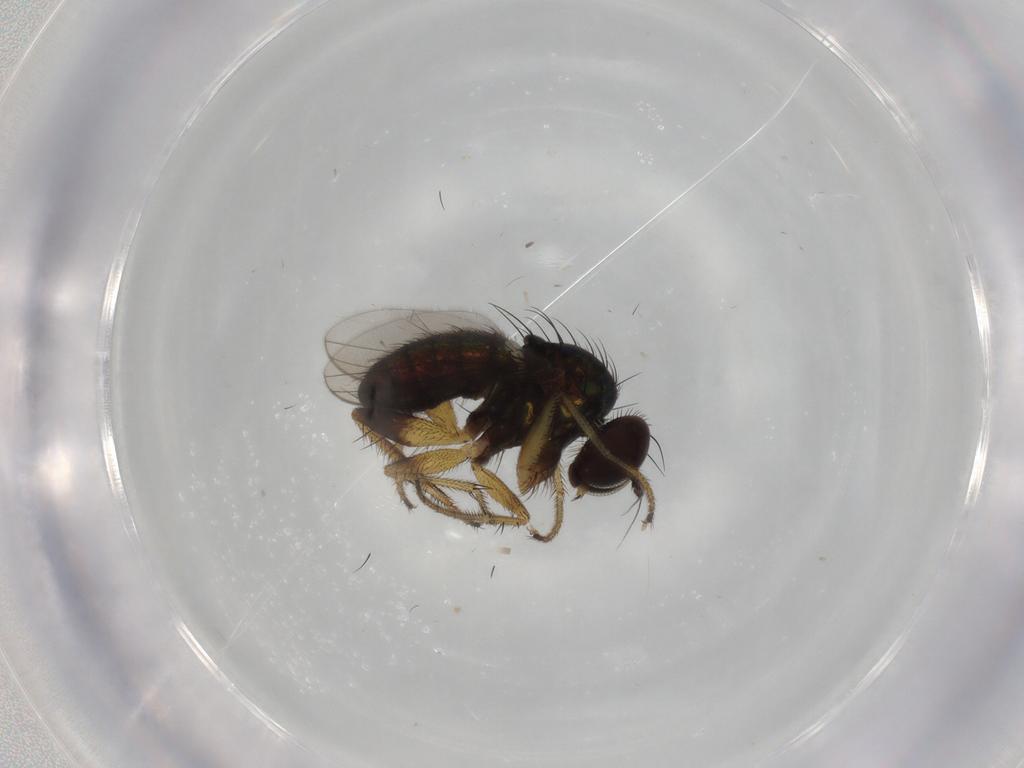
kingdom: Animalia
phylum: Arthropoda
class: Insecta
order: Diptera
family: Dolichopodidae
